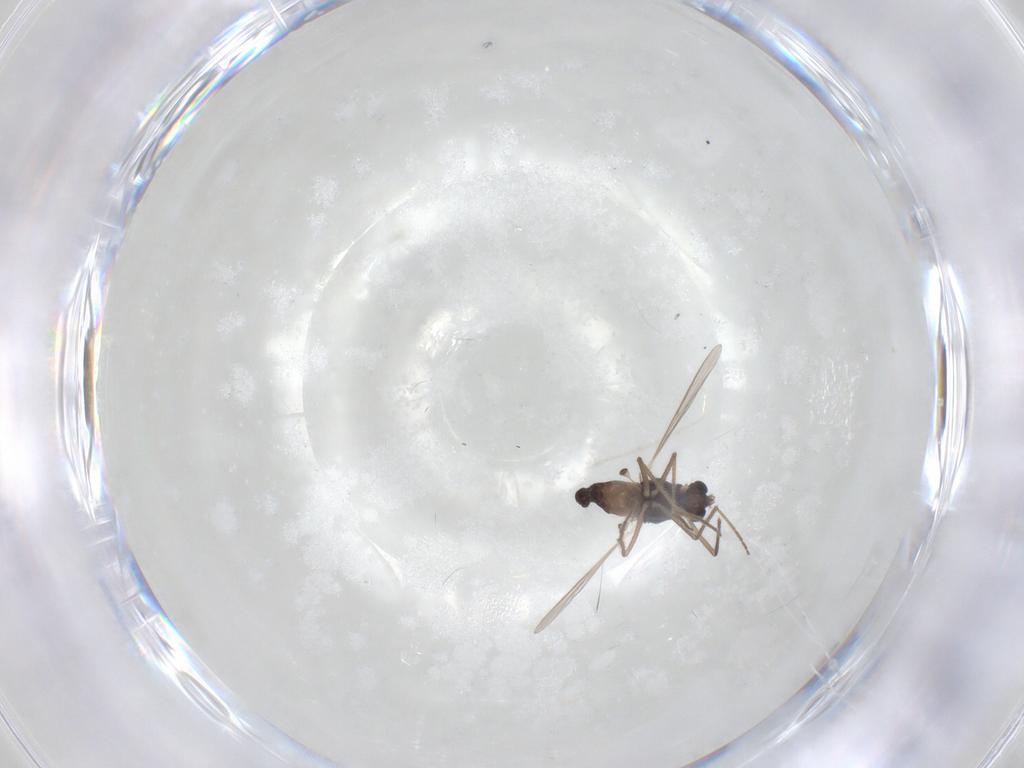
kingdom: Animalia
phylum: Arthropoda
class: Insecta
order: Diptera
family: Chironomidae
